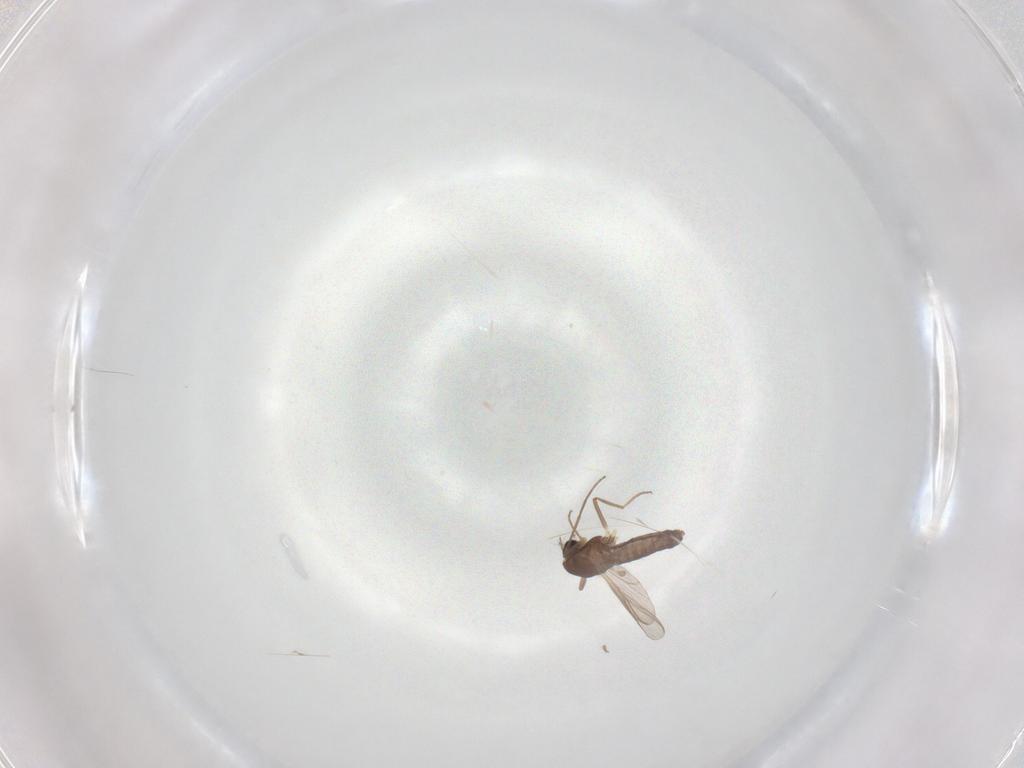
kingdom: Animalia
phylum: Arthropoda
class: Insecta
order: Diptera
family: Chironomidae
